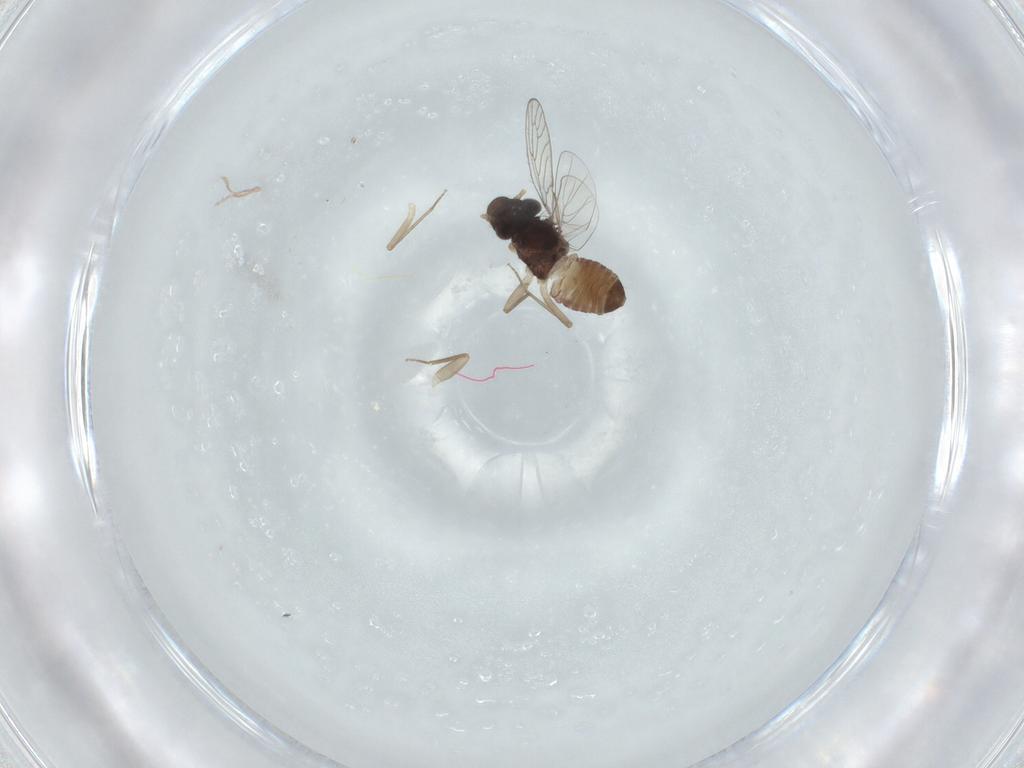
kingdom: Animalia
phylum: Arthropoda
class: Insecta
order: Psocodea
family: Psoquillidae
